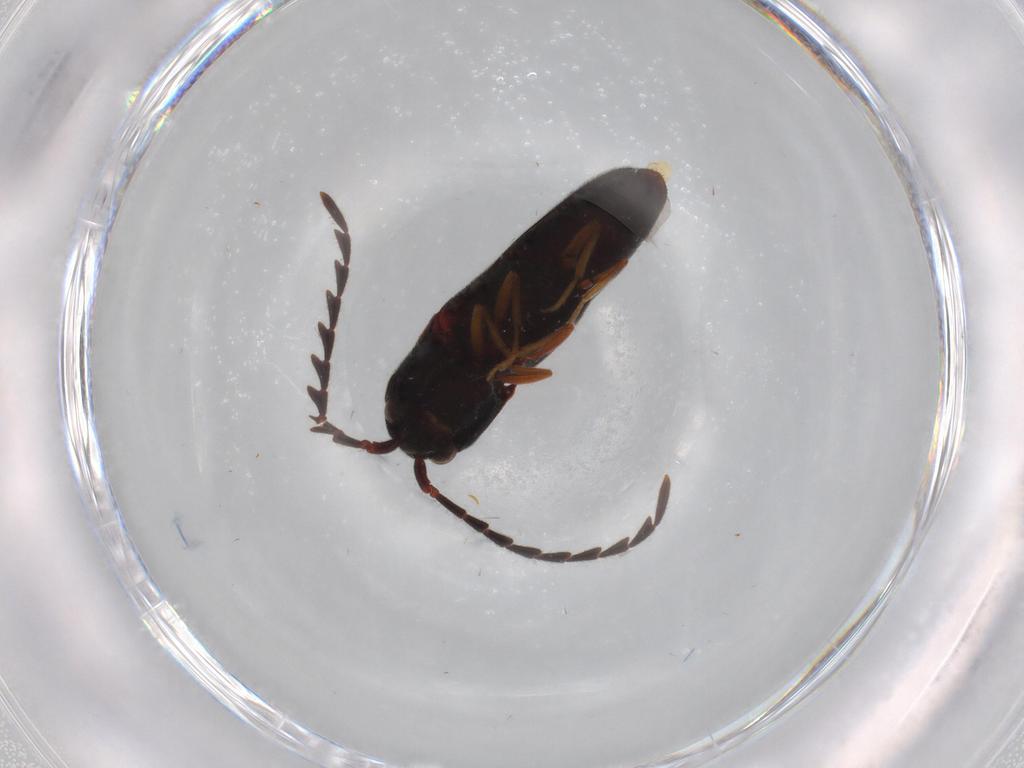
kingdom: Animalia
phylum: Arthropoda
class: Insecta
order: Coleoptera
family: Eucnemidae
